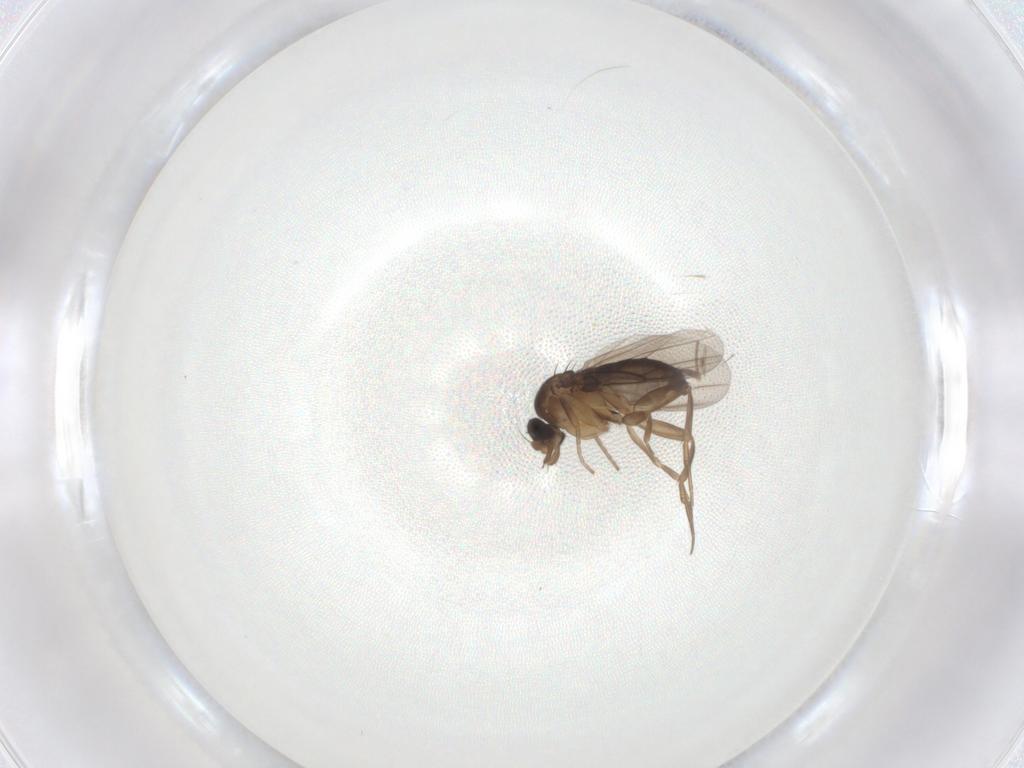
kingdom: Animalia
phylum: Arthropoda
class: Insecta
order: Diptera
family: Phoridae
